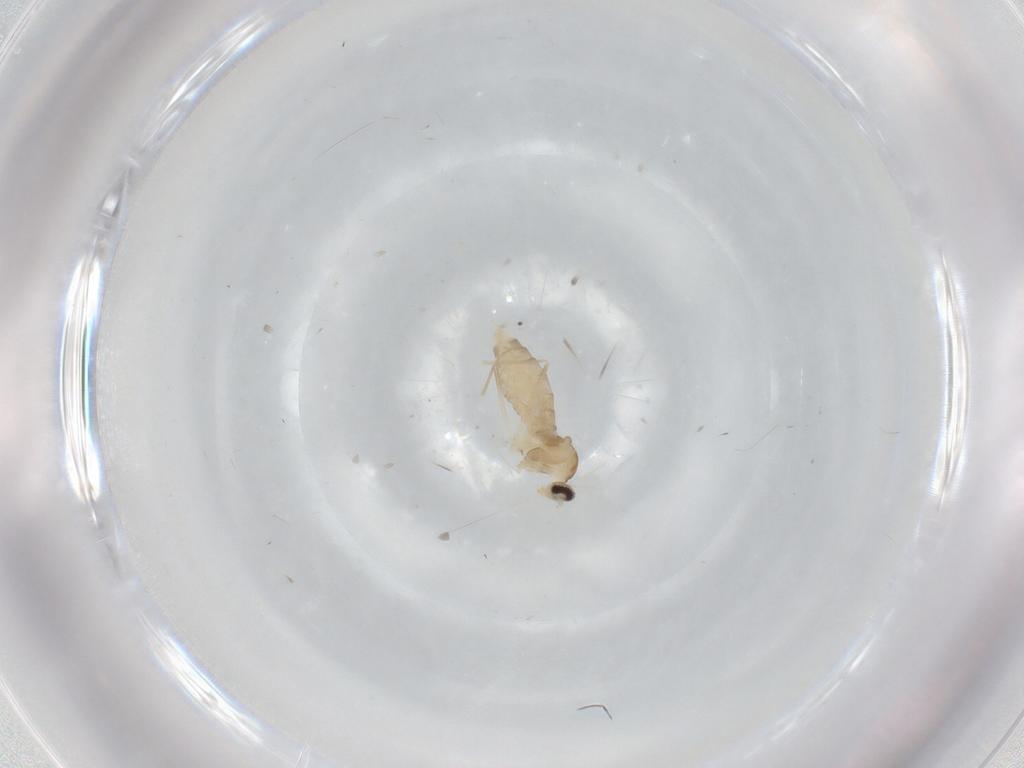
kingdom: Animalia
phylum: Arthropoda
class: Insecta
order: Diptera
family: Cecidomyiidae
